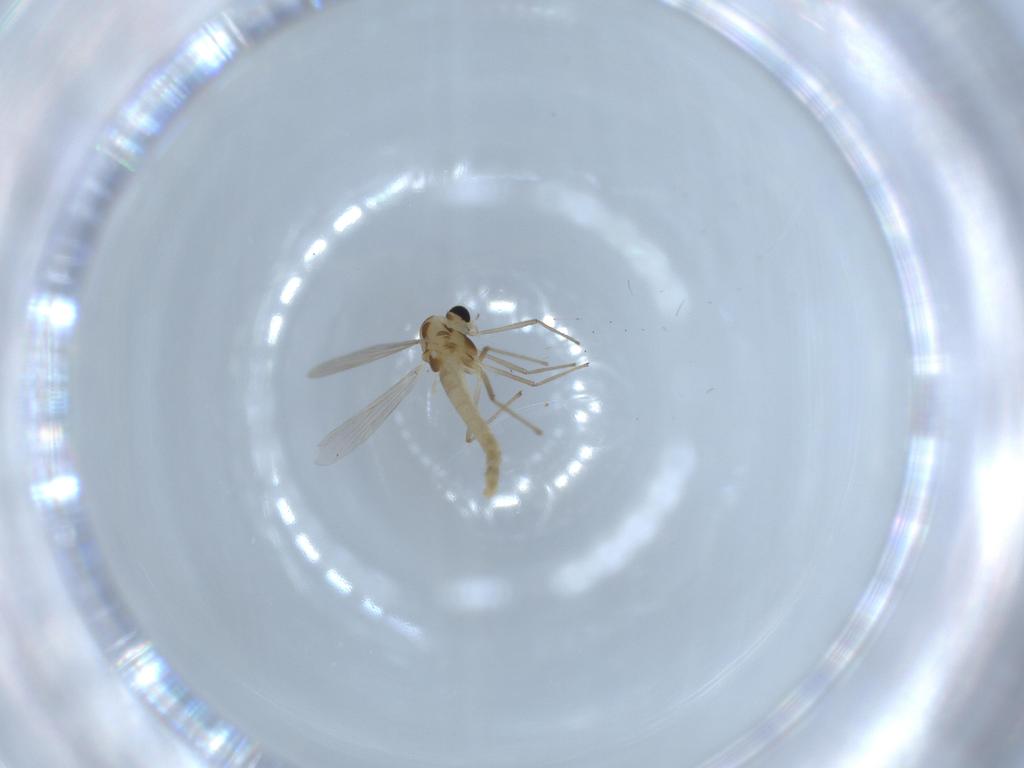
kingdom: Animalia
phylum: Arthropoda
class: Insecta
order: Diptera
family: Chironomidae
